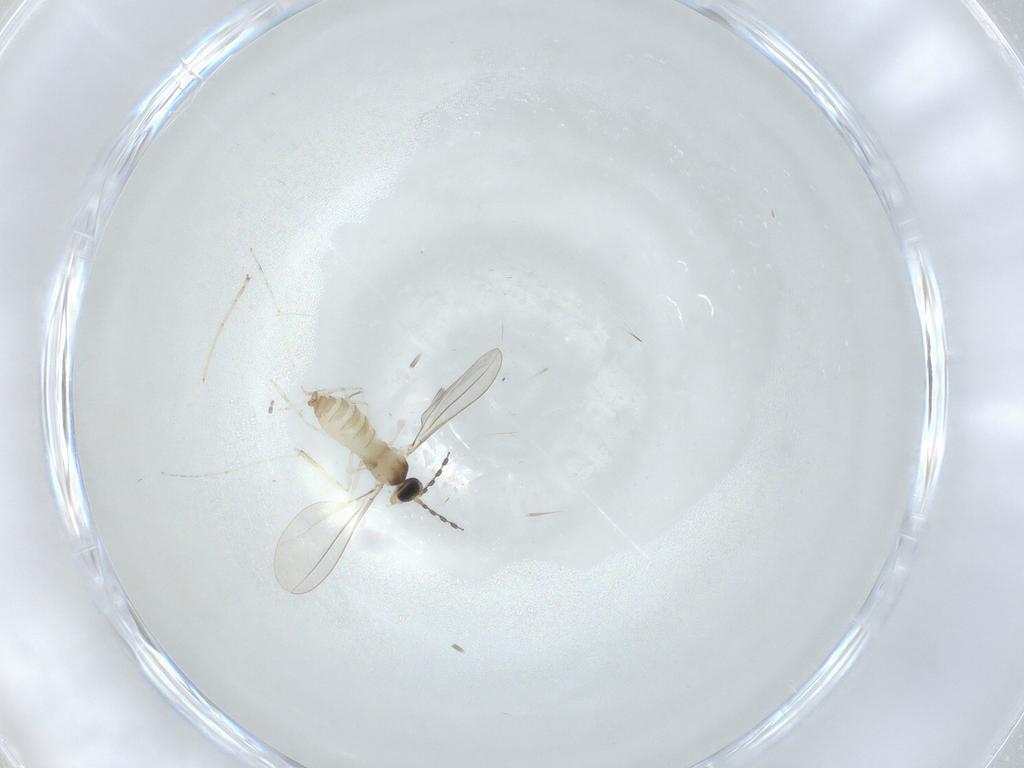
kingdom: Animalia
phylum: Arthropoda
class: Insecta
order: Diptera
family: Cecidomyiidae
